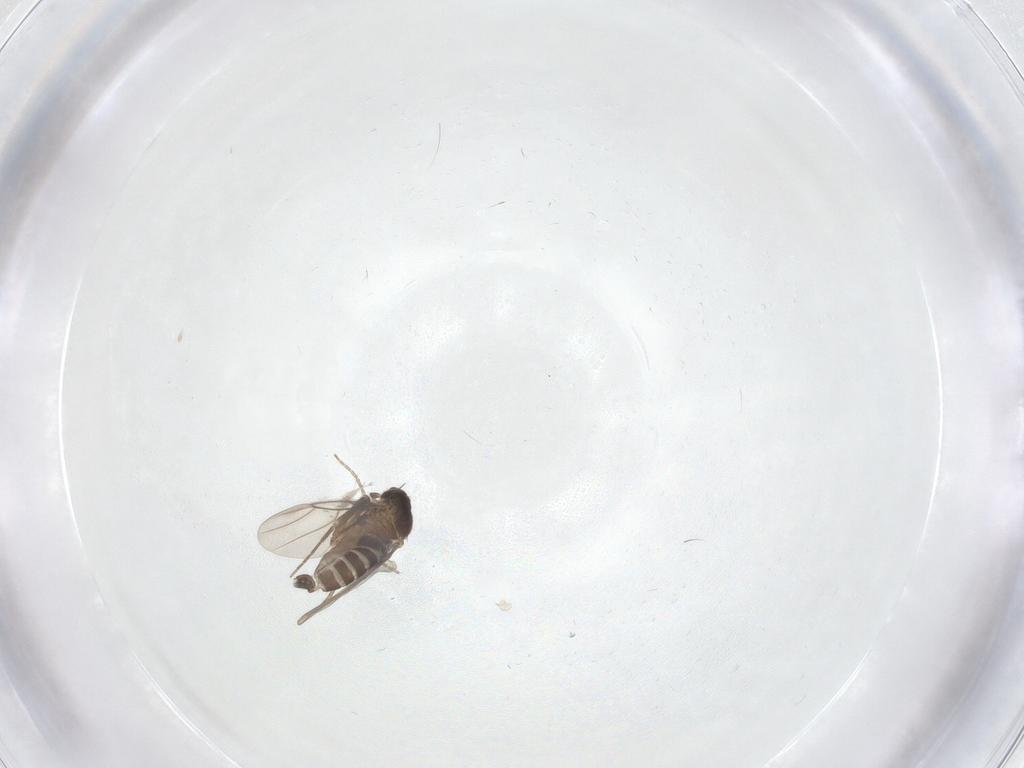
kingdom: Animalia
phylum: Arthropoda
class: Insecta
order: Diptera
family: Phoridae
